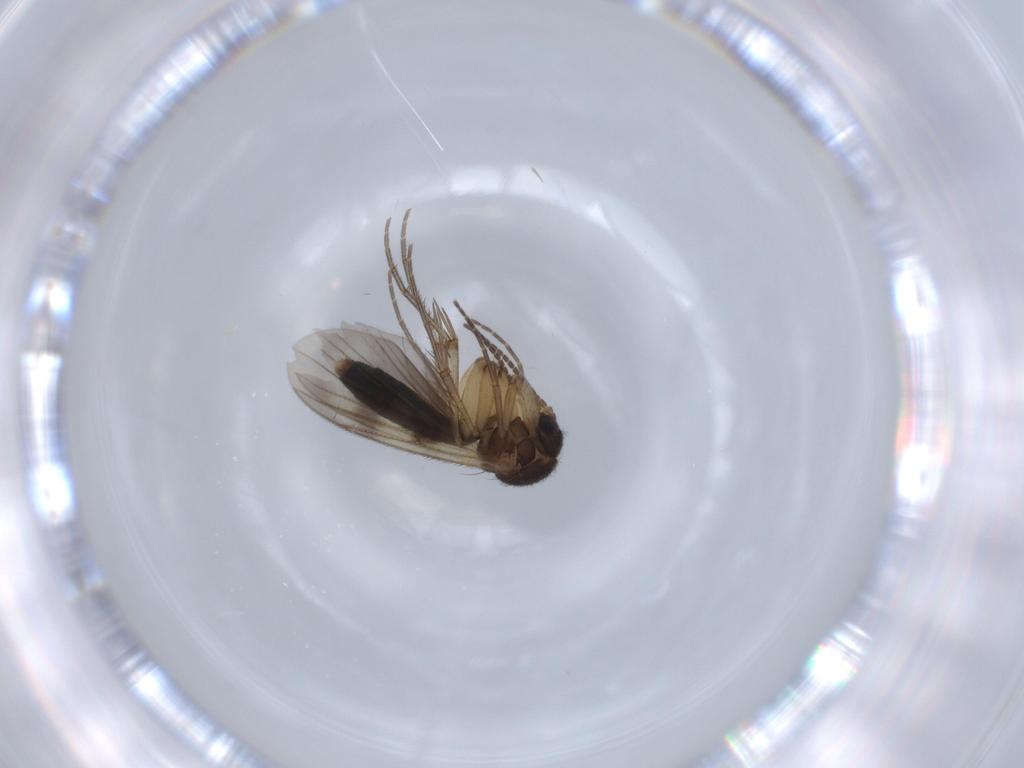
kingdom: Animalia
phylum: Arthropoda
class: Insecta
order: Diptera
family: Mycetophilidae
